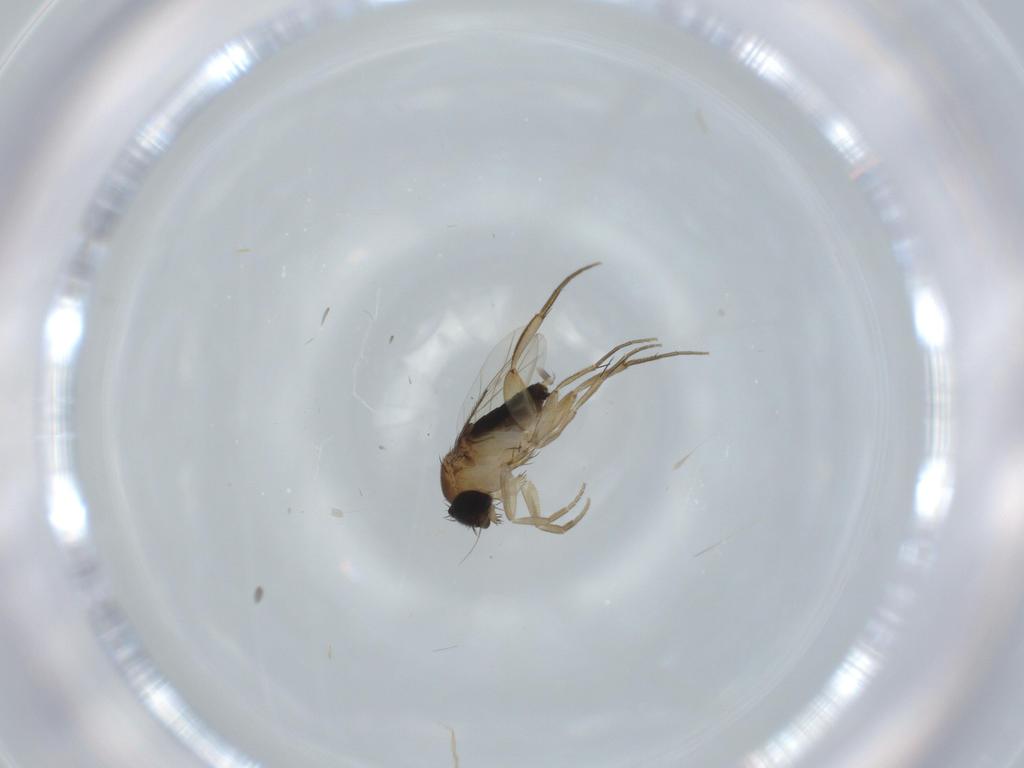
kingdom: Animalia
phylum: Arthropoda
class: Insecta
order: Diptera
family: Phoridae
